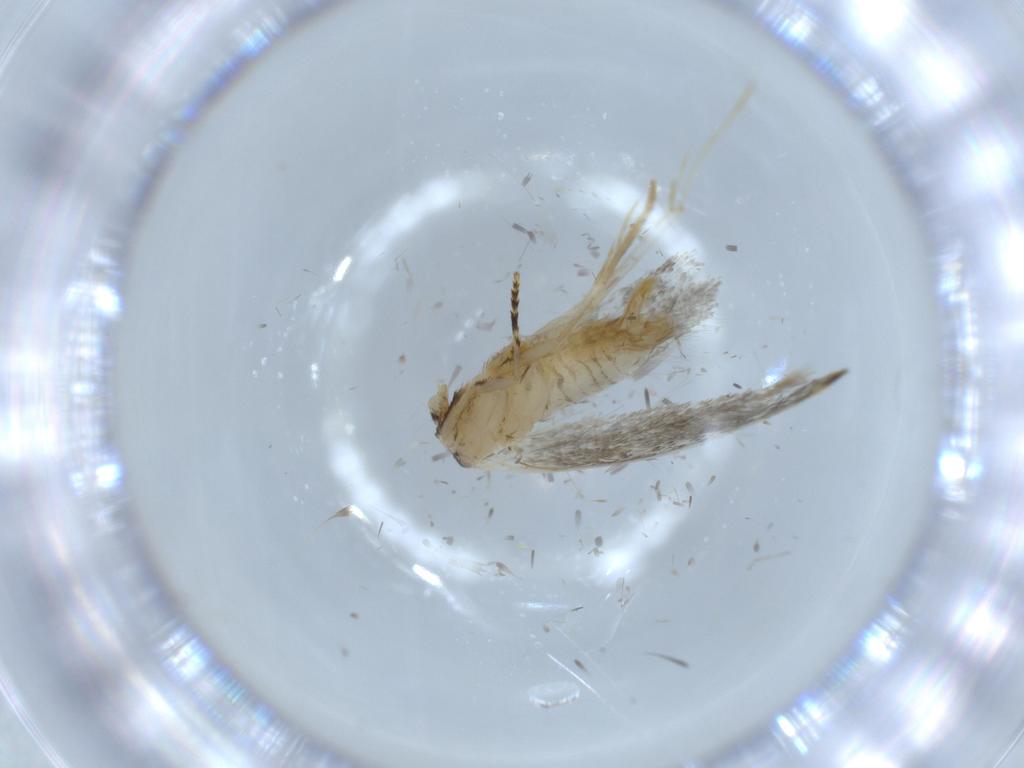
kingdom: Animalia
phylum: Arthropoda
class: Insecta
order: Lepidoptera
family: Tineidae
